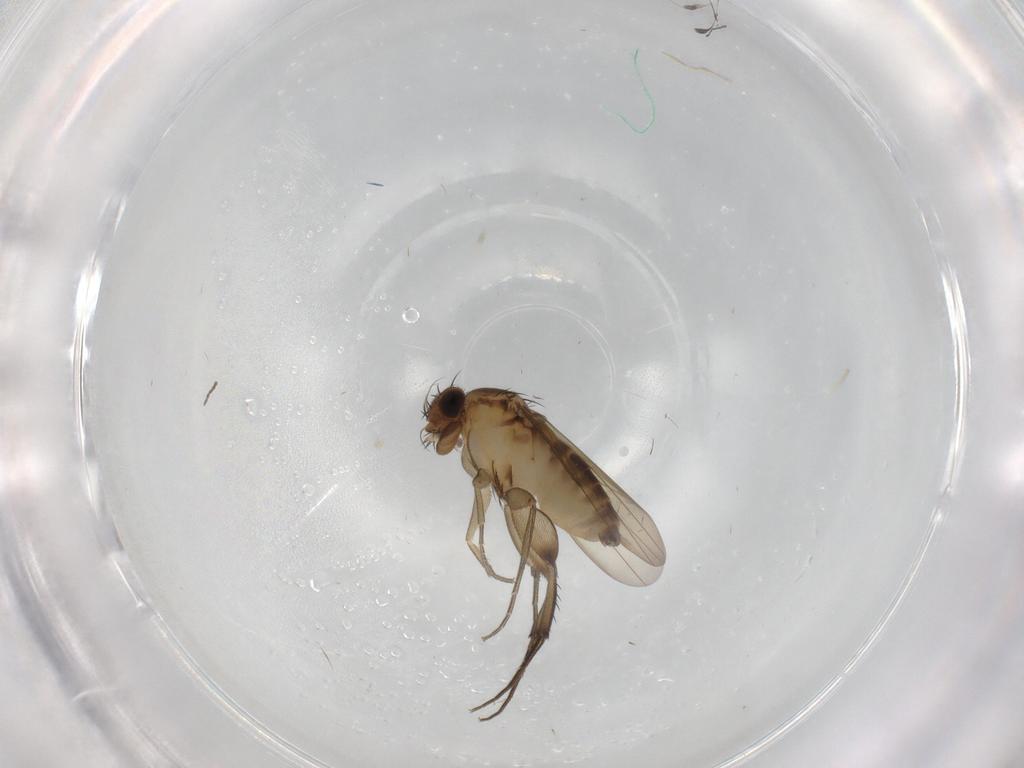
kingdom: Animalia
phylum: Arthropoda
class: Insecta
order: Diptera
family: Phoridae
